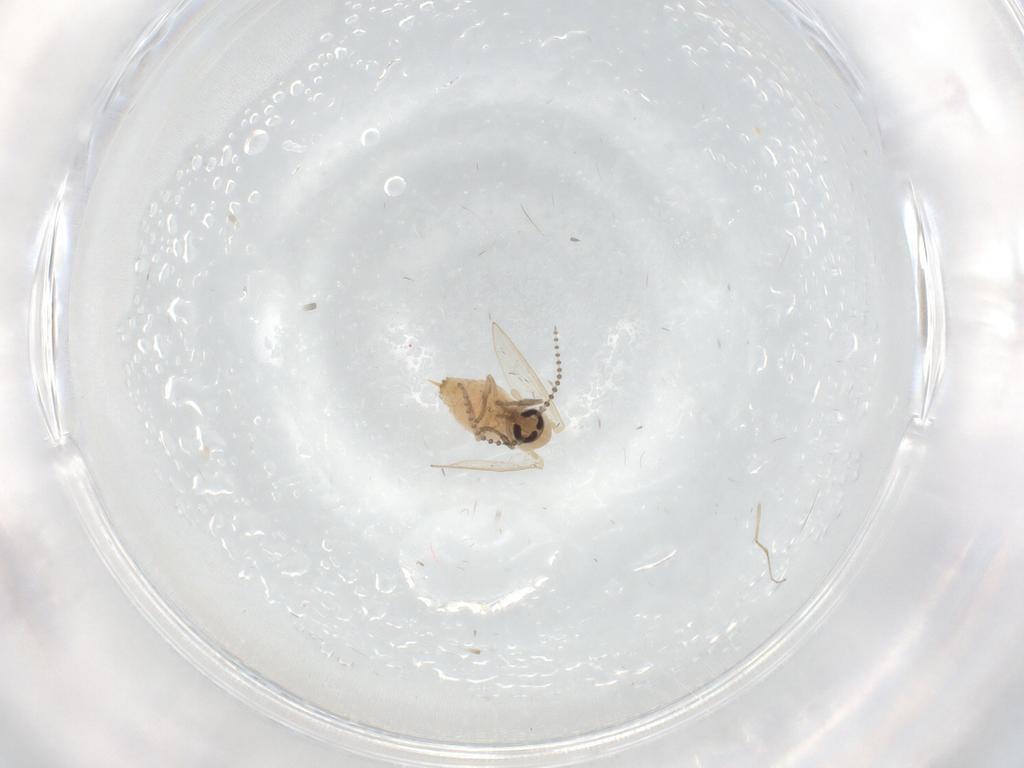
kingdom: Animalia
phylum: Arthropoda
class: Insecta
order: Diptera
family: Psychodidae
